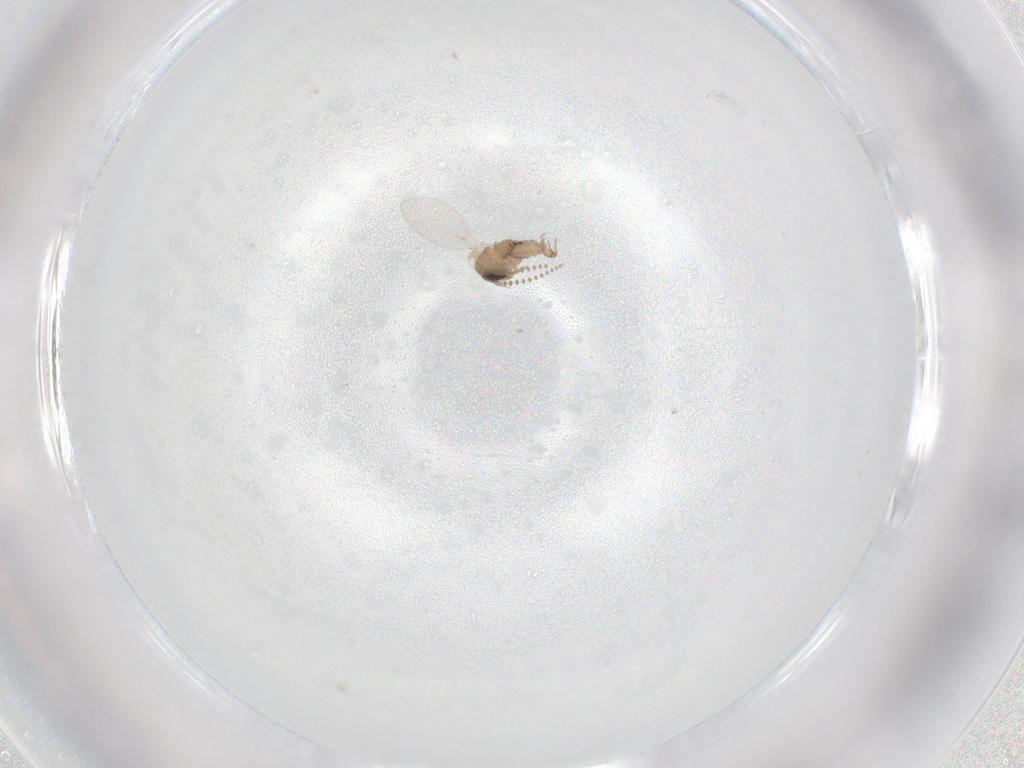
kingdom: Animalia
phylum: Arthropoda
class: Insecta
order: Diptera
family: Psychodidae
